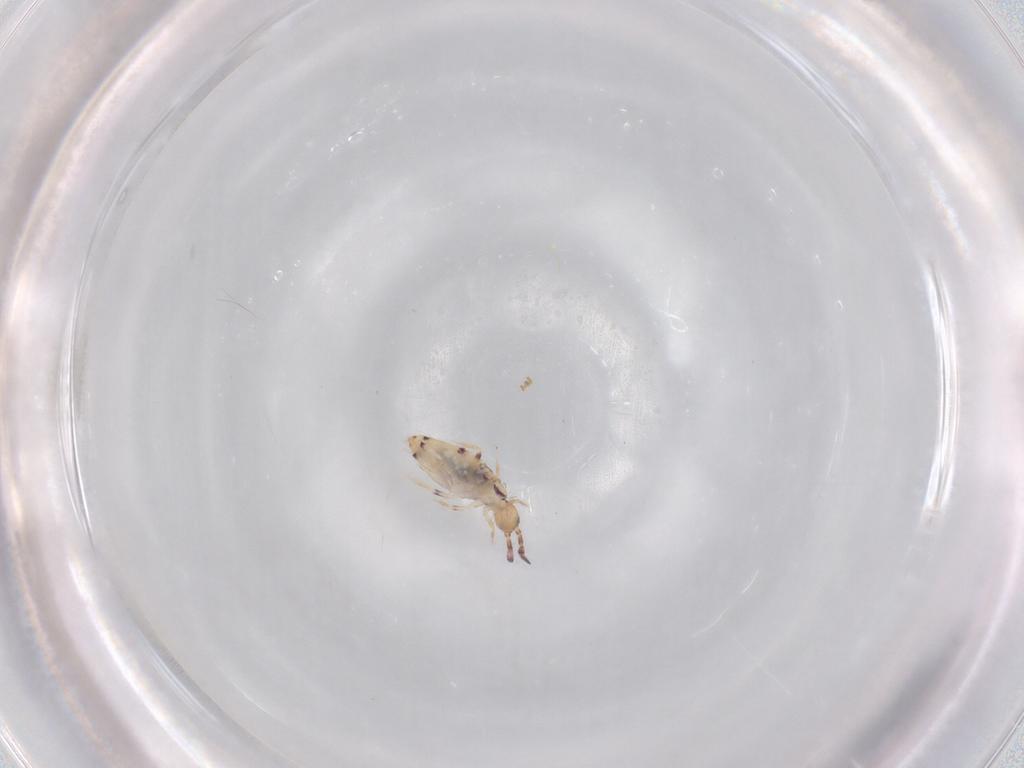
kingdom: Animalia
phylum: Arthropoda
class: Collembola
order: Entomobryomorpha
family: Entomobryidae
